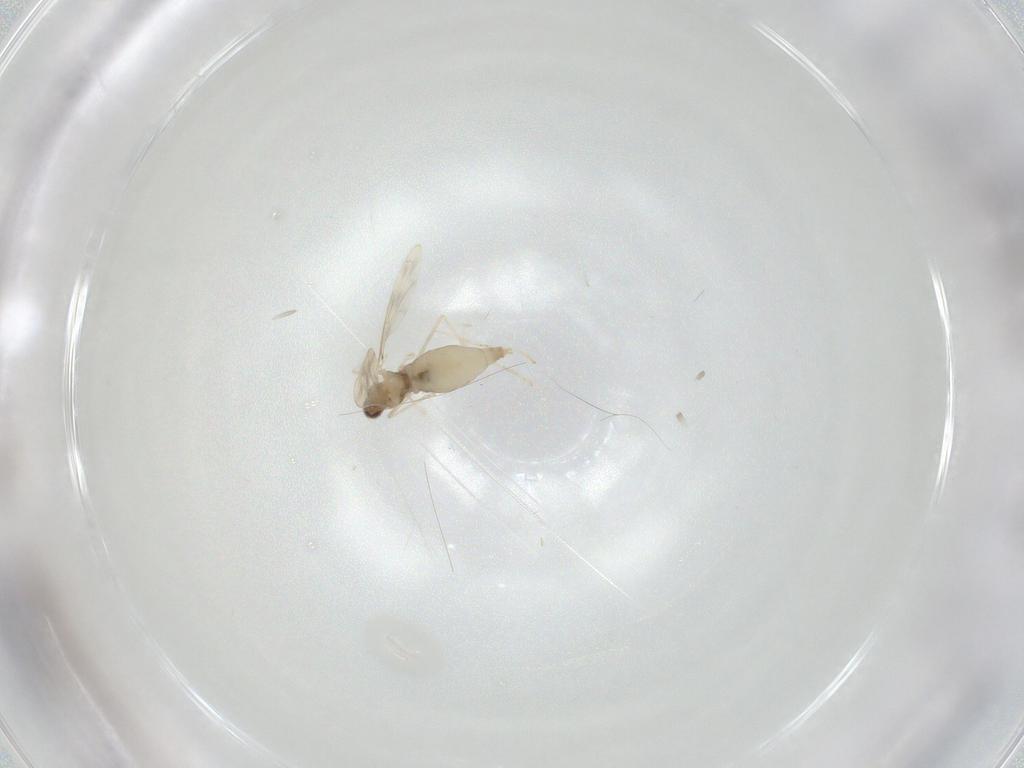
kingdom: Animalia
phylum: Arthropoda
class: Insecta
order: Diptera
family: Cecidomyiidae
